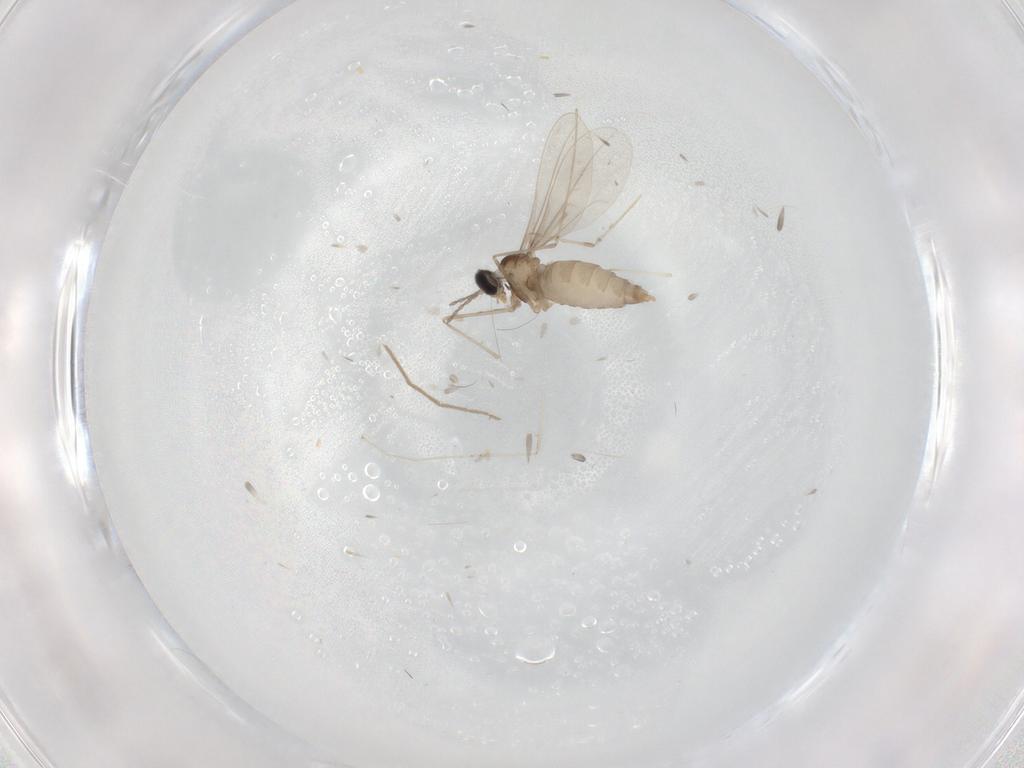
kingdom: Animalia
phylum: Arthropoda
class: Insecta
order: Diptera
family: Cecidomyiidae
